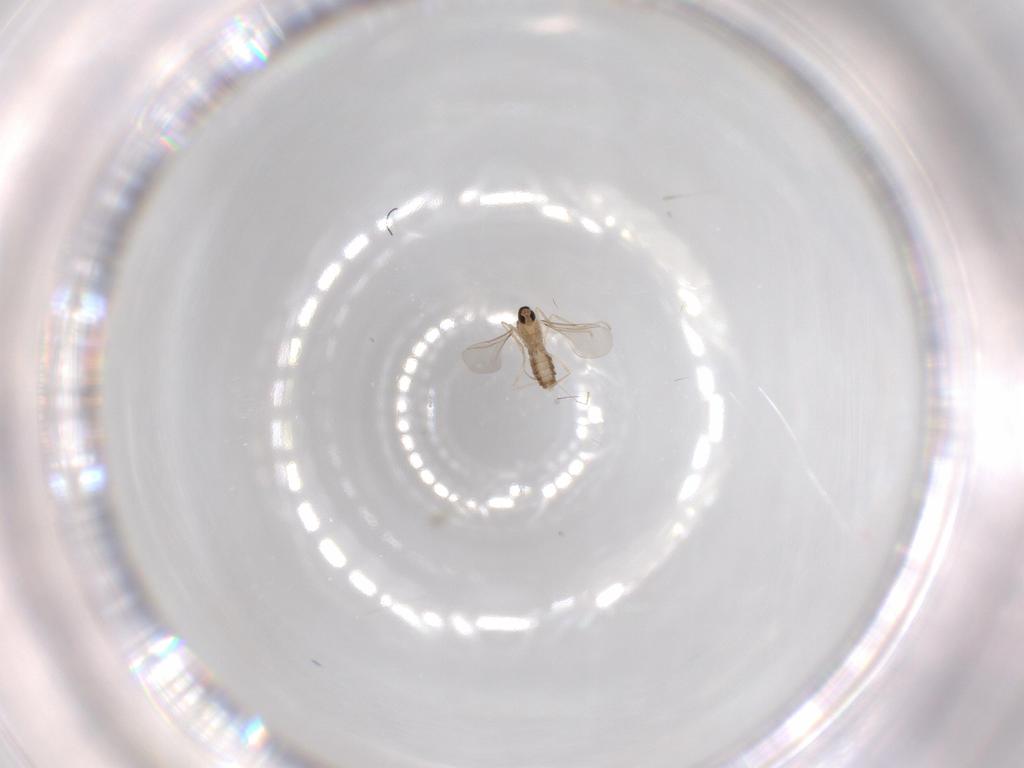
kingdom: Animalia
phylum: Arthropoda
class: Insecta
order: Diptera
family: Cecidomyiidae
